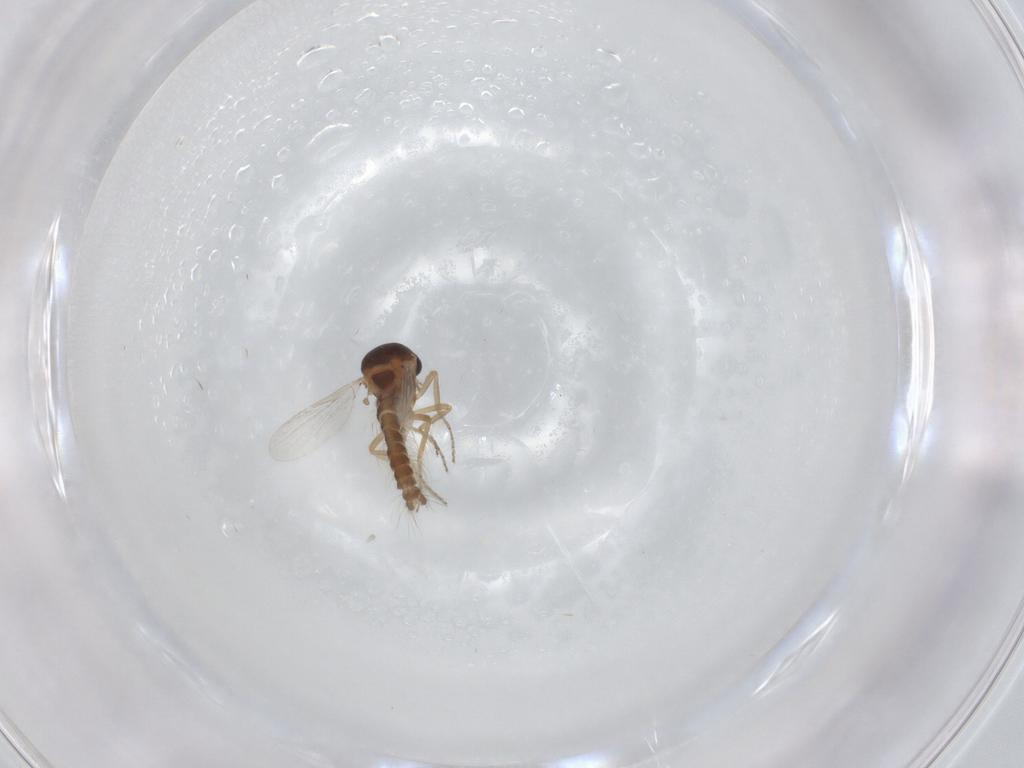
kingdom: Animalia
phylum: Arthropoda
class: Insecta
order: Diptera
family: Ceratopogonidae
